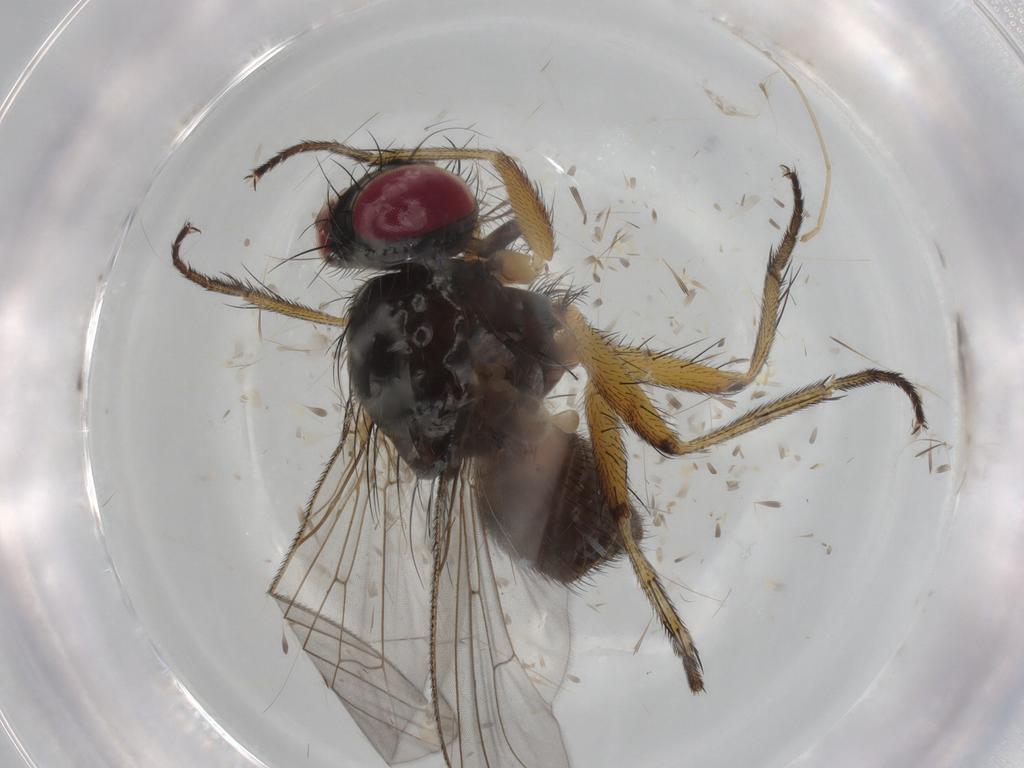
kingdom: Animalia
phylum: Arthropoda
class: Insecta
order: Diptera
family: Muscidae
